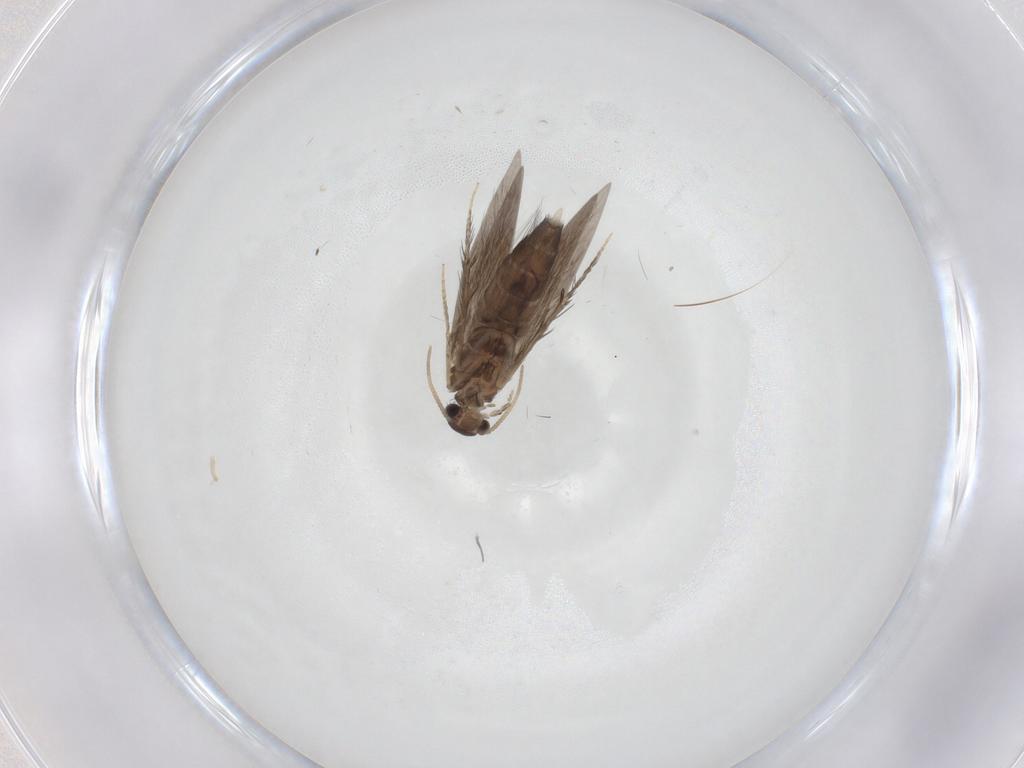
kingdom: Animalia
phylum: Arthropoda
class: Insecta
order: Trichoptera
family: Hydroptilidae
